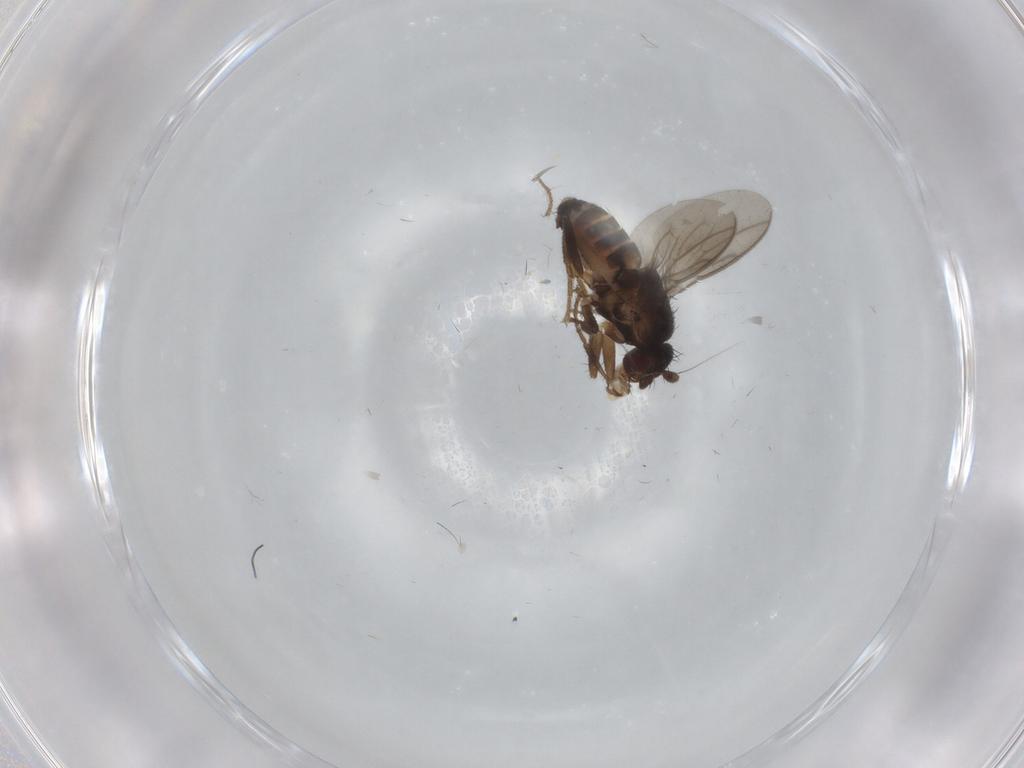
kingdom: Animalia
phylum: Arthropoda
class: Insecta
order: Diptera
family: Sphaeroceridae
